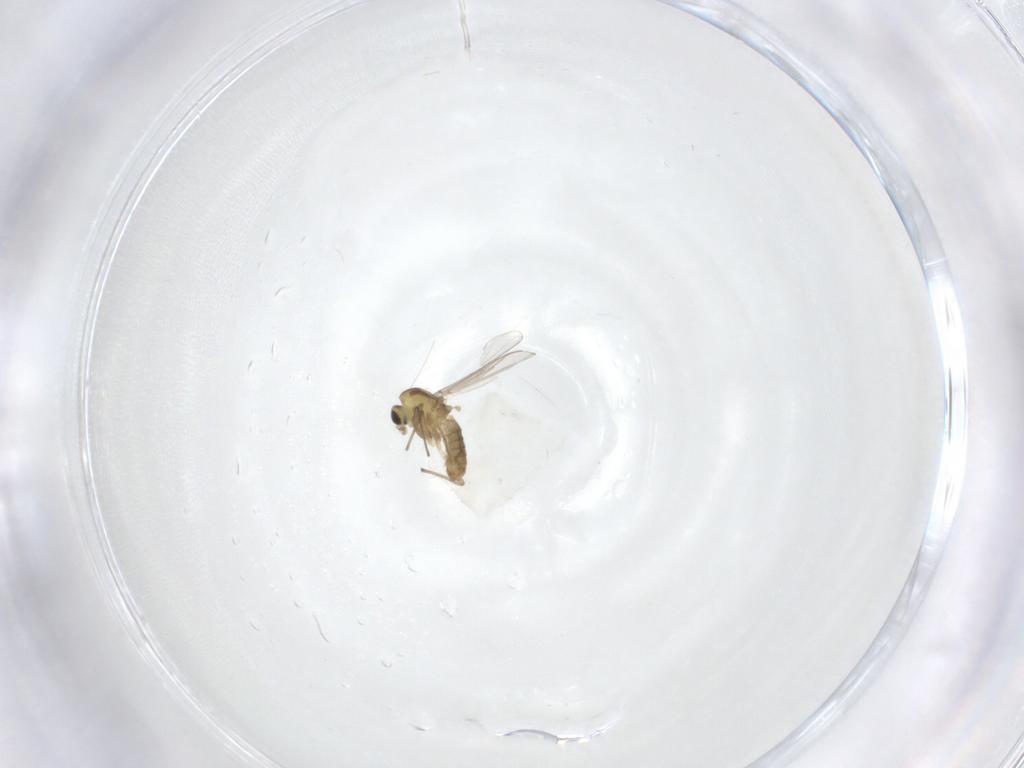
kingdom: Animalia
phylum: Arthropoda
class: Insecta
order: Diptera
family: Chironomidae
